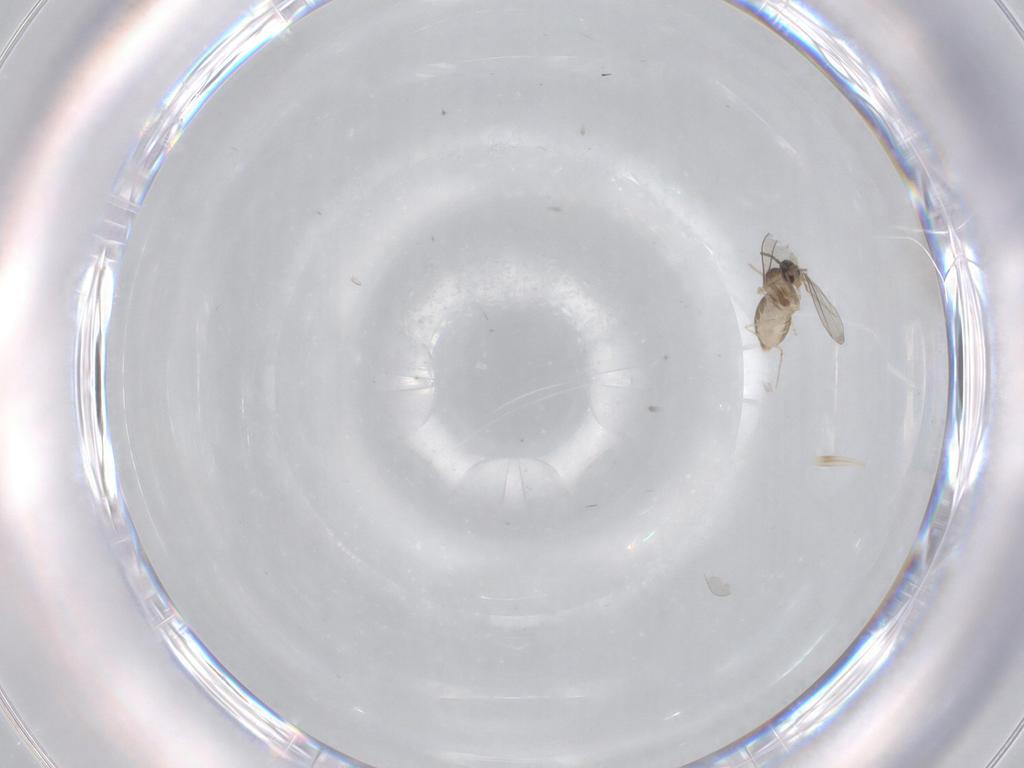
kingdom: Animalia
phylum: Arthropoda
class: Insecta
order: Diptera
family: Cecidomyiidae
